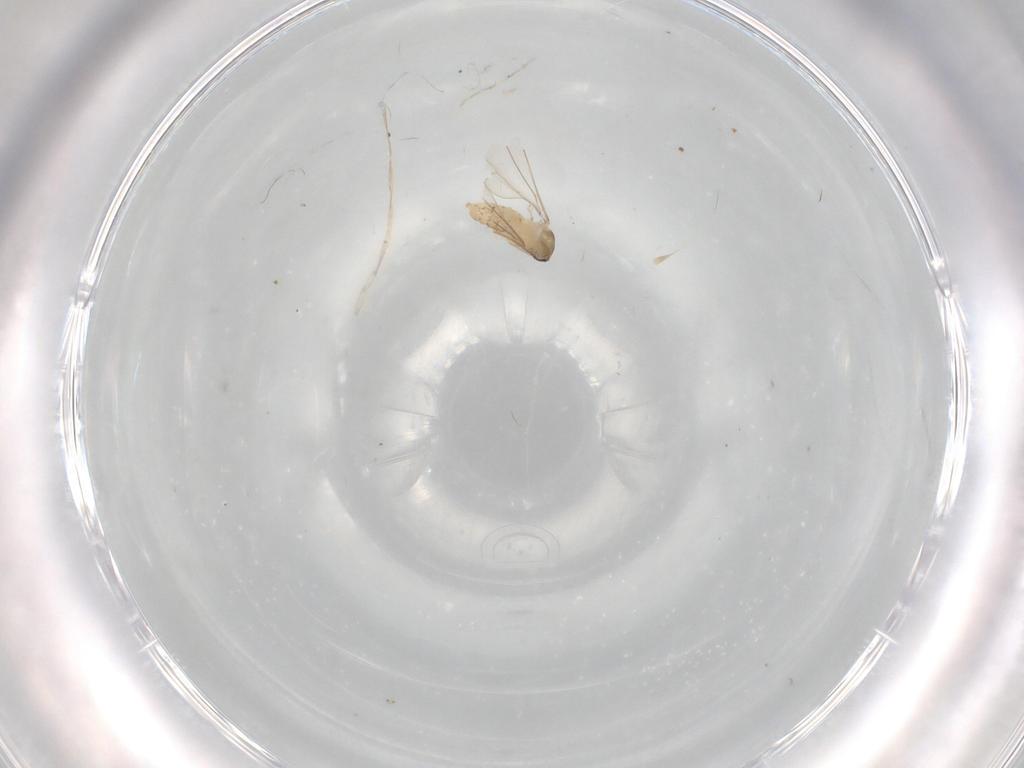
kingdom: Animalia
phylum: Arthropoda
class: Insecta
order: Diptera
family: Cecidomyiidae
